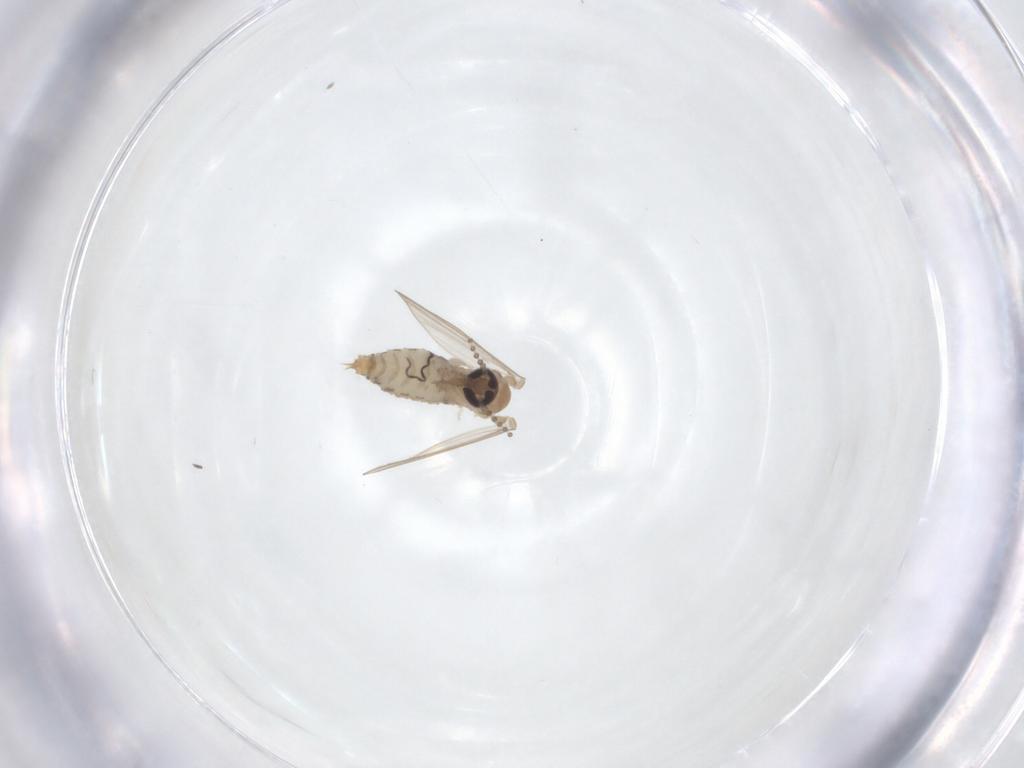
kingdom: Animalia
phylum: Arthropoda
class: Insecta
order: Diptera
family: Psychodidae
